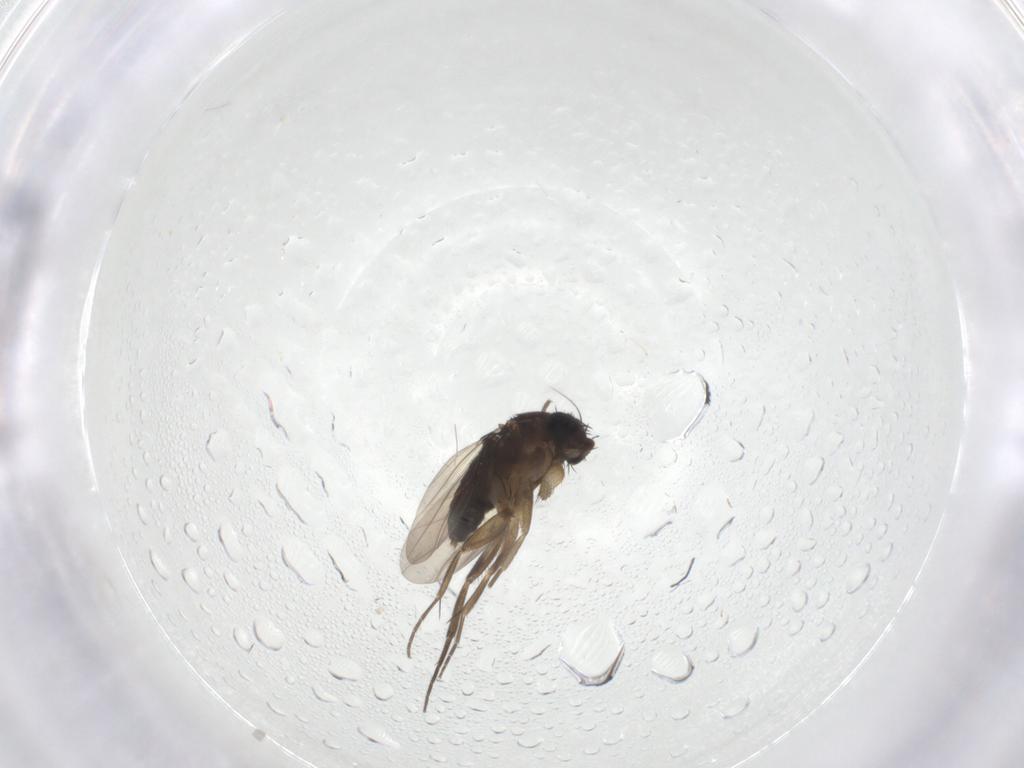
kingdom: Animalia
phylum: Arthropoda
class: Insecta
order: Diptera
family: Phoridae
